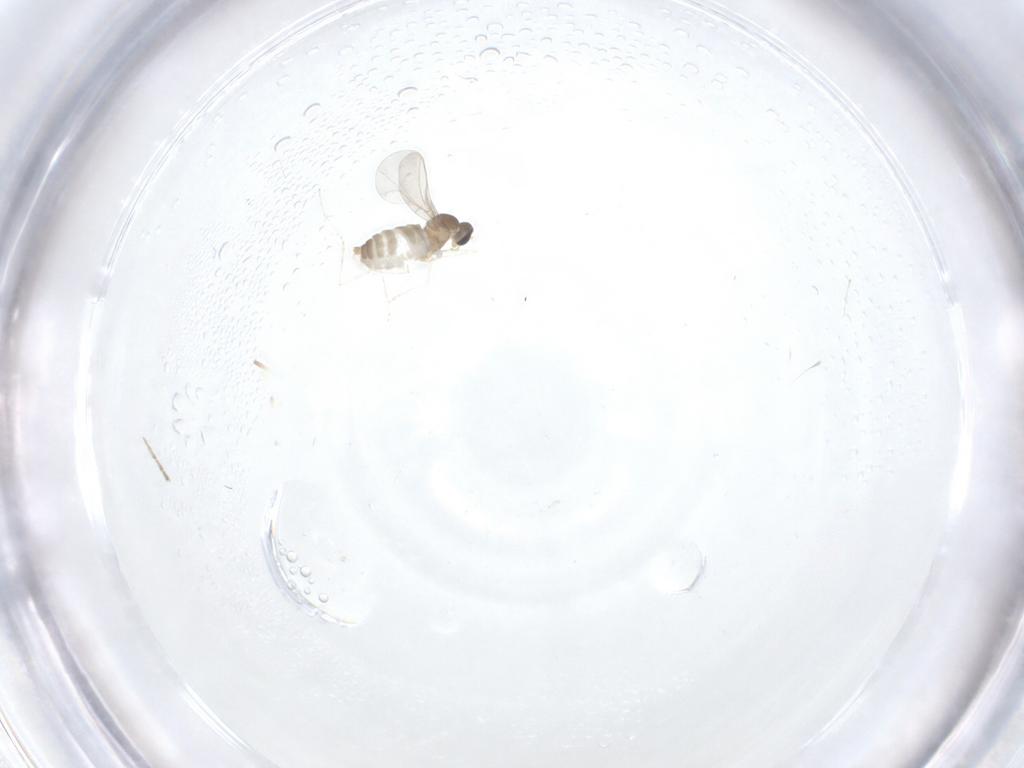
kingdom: Animalia
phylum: Arthropoda
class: Insecta
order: Diptera
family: Cecidomyiidae
